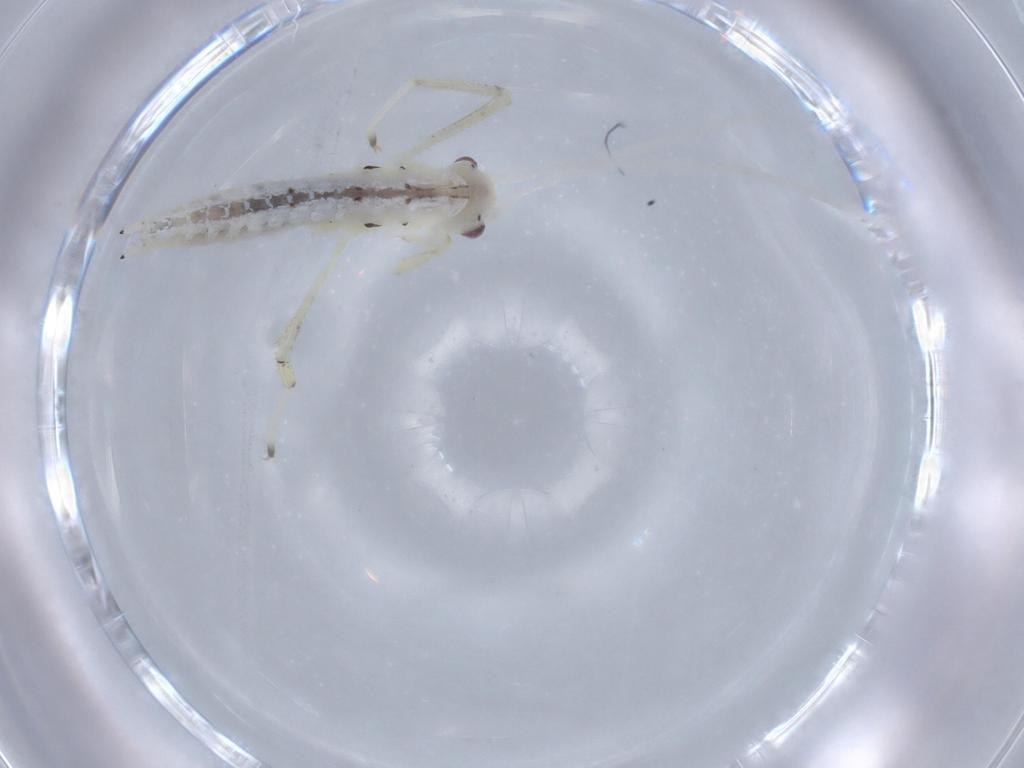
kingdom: Animalia
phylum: Arthropoda
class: Insecta
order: Orthoptera
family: Oecanthidae
